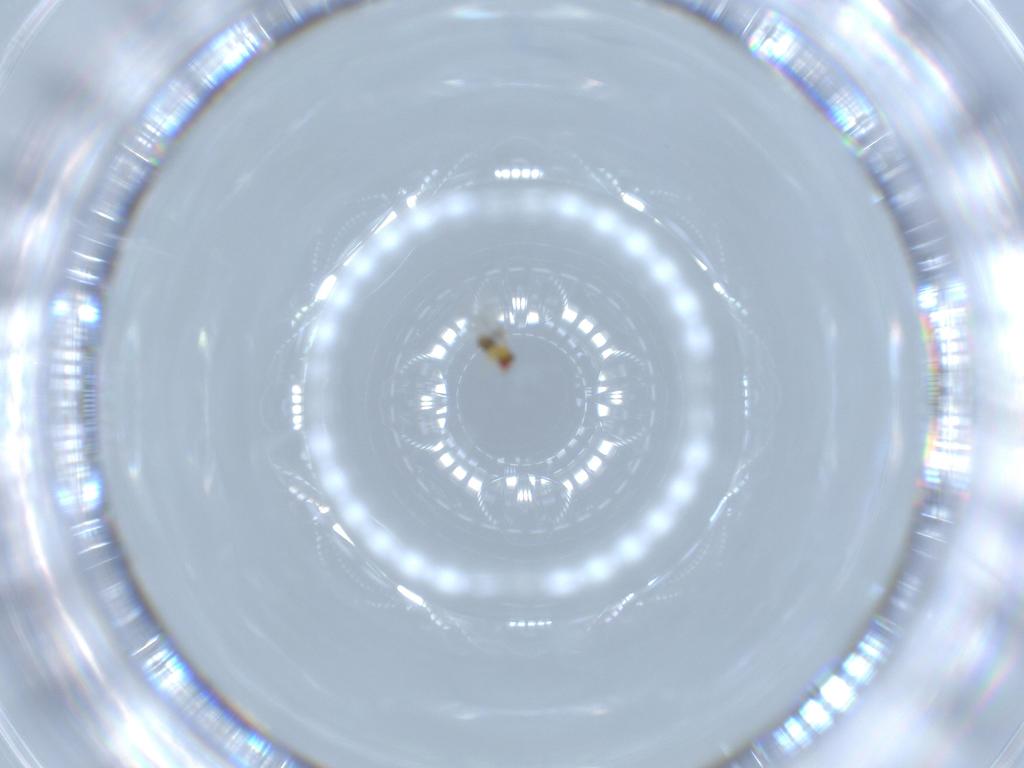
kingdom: Animalia
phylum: Arthropoda
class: Insecta
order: Hymenoptera
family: Trichogrammatidae
